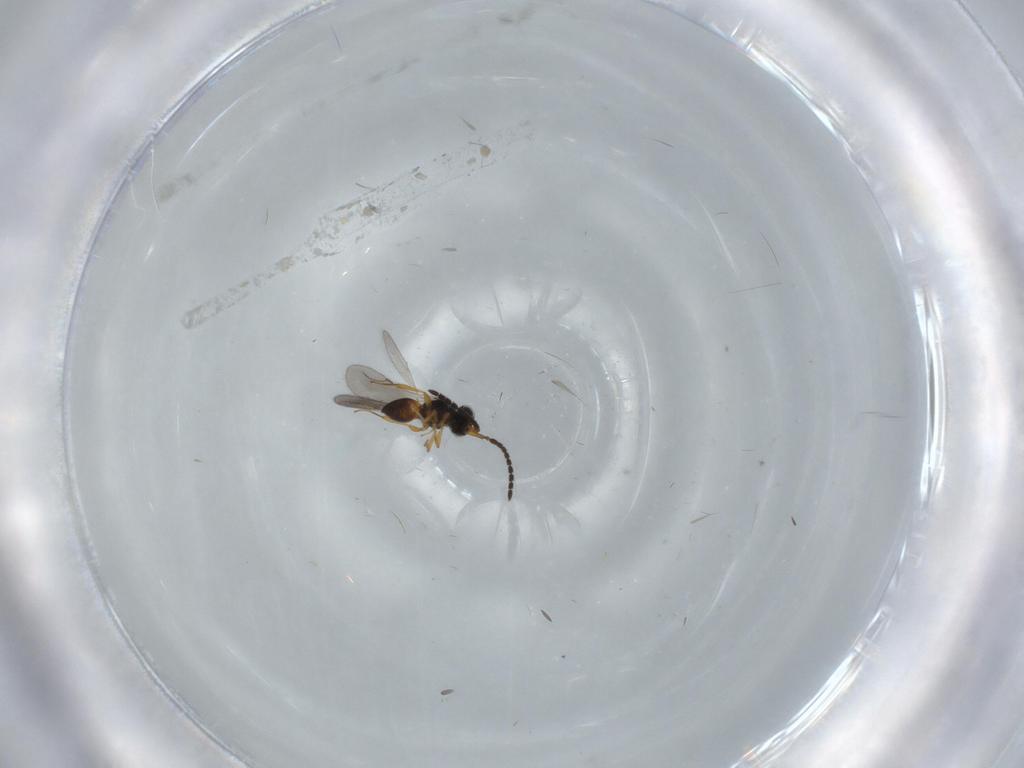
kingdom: Animalia
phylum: Arthropoda
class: Insecta
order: Hymenoptera
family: Ceraphronidae
